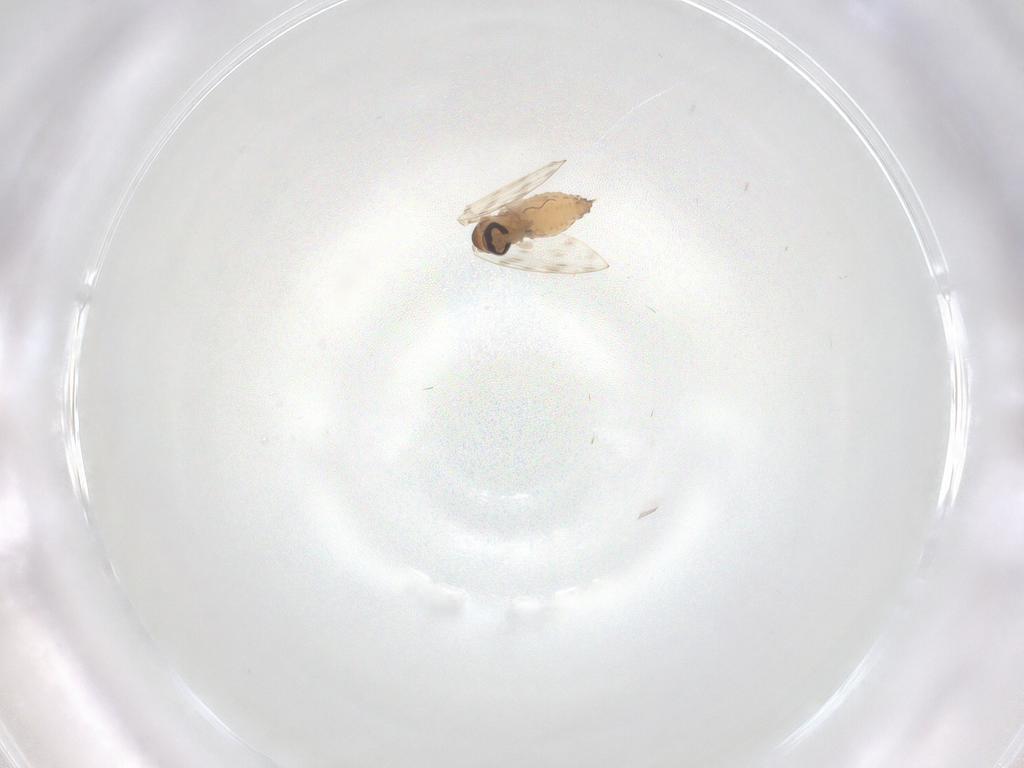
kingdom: Animalia
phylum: Arthropoda
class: Insecta
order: Diptera
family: Psychodidae
